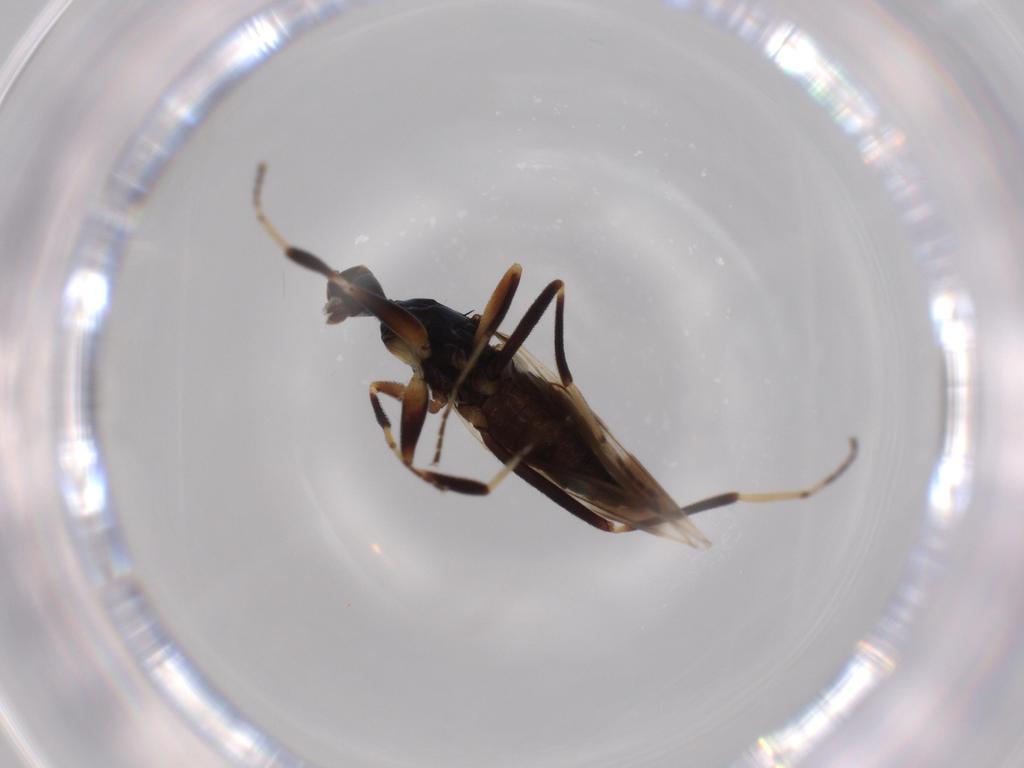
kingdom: Animalia
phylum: Arthropoda
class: Insecta
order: Diptera
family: Hybotidae
